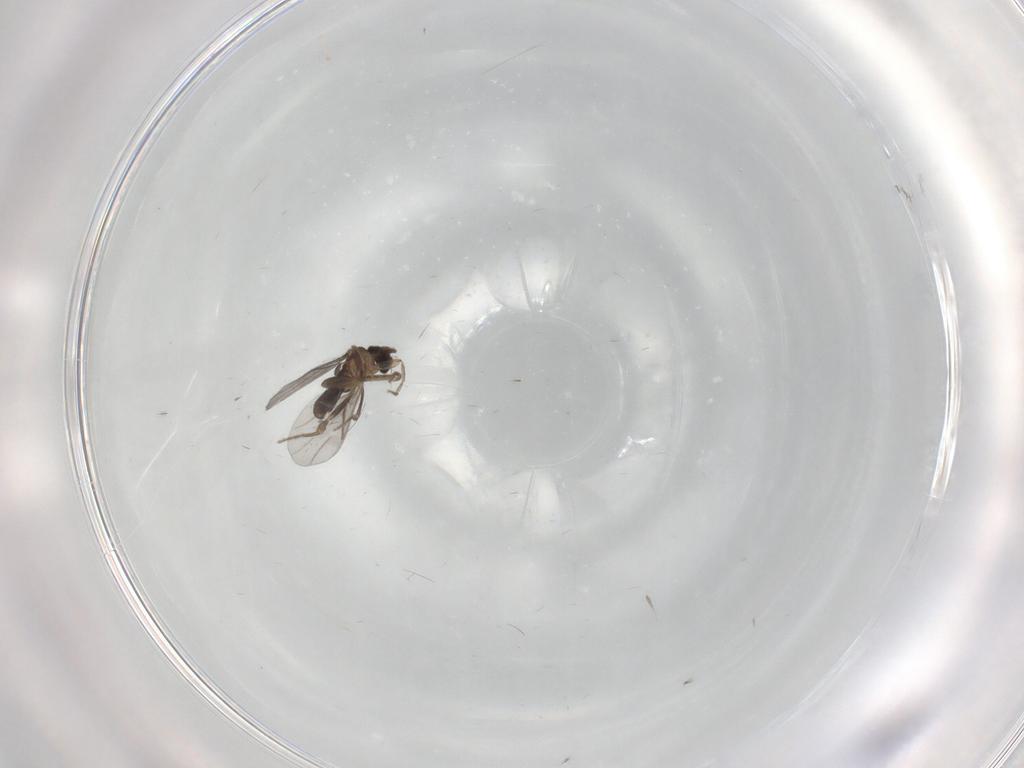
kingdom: Animalia
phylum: Arthropoda
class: Insecta
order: Diptera
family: Cecidomyiidae
